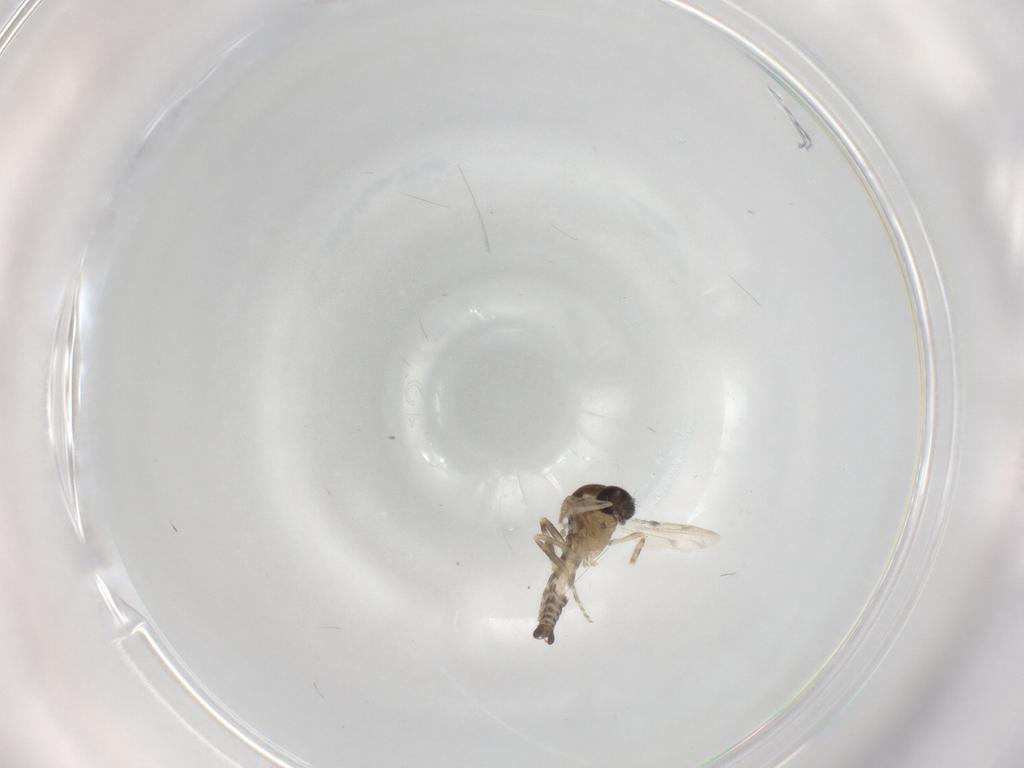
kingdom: Animalia
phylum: Arthropoda
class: Insecta
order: Diptera
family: Ceratopogonidae
